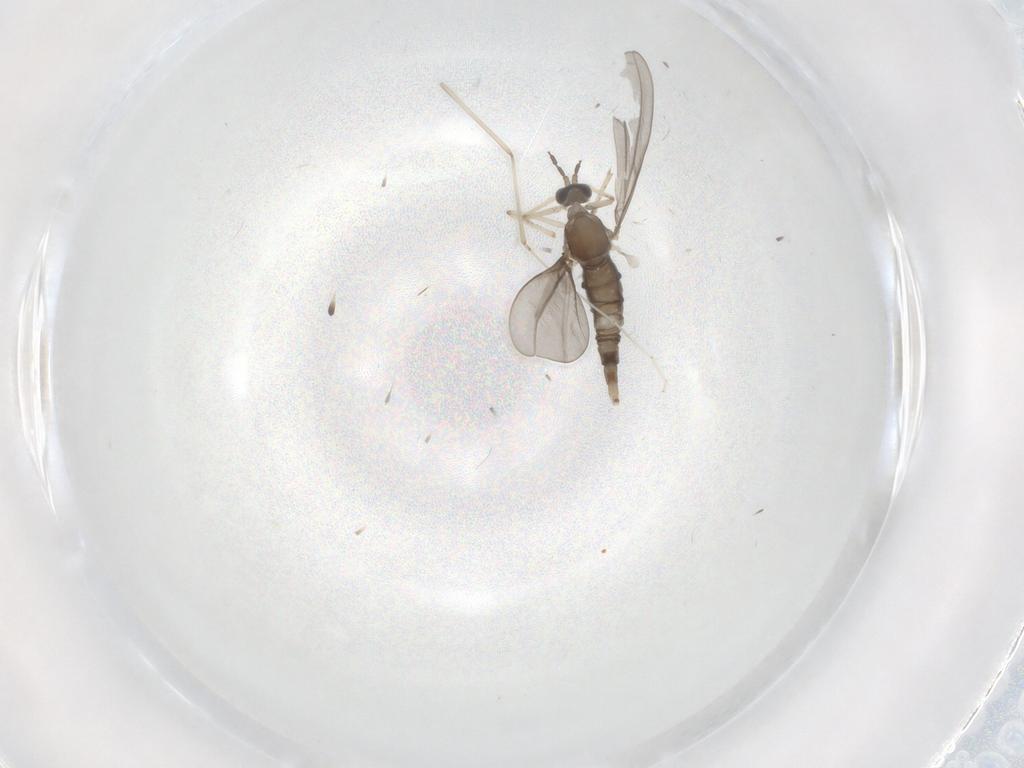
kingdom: Animalia
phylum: Arthropoda
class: Insecta
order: Diptera
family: Cecidomyiidae
